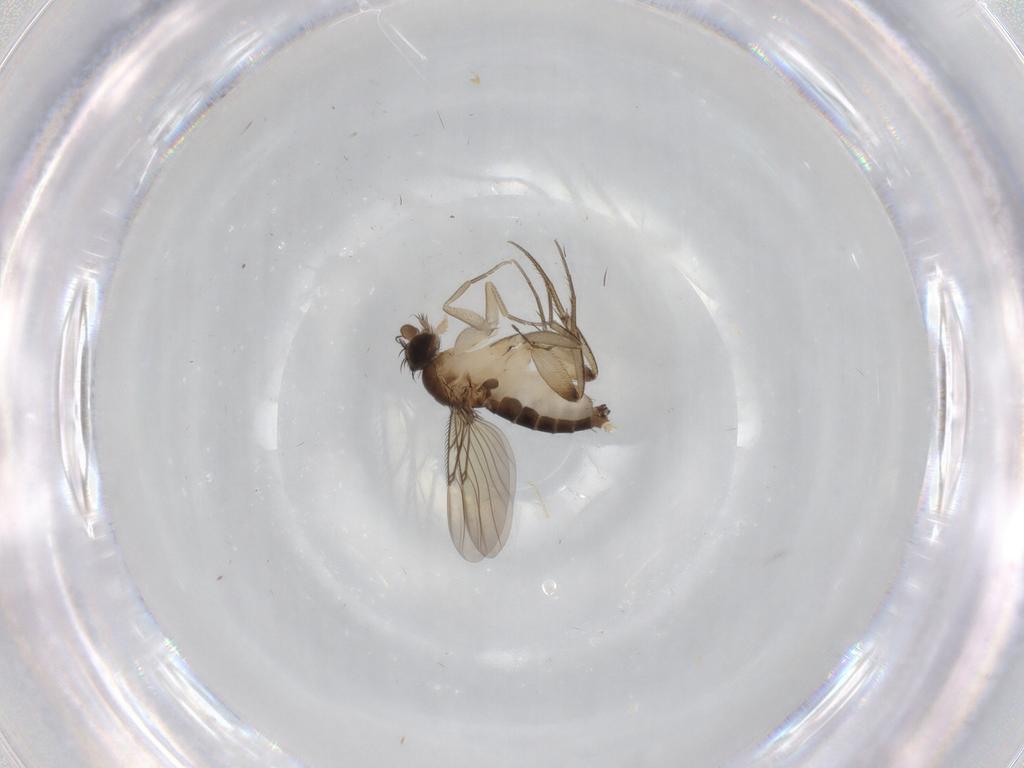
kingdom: Animalia
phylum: Arthropoda
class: Insecta
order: Diptera
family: Phoridae
